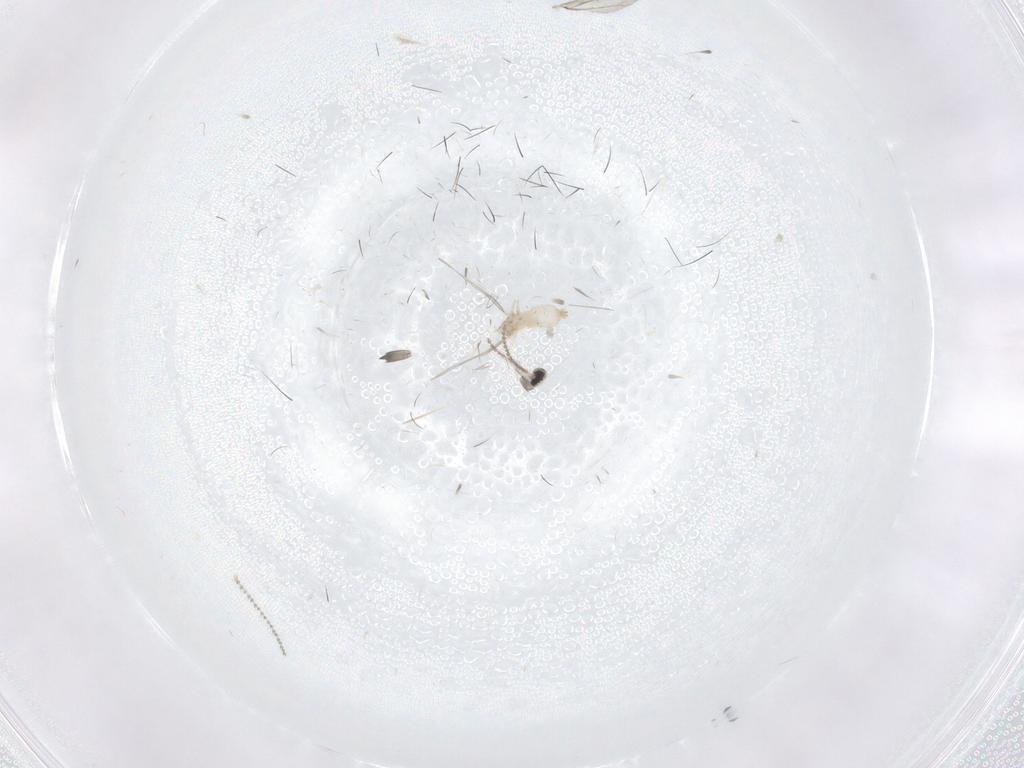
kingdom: Animalia
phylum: Arthropoda
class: Insecta
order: Diptera
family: Cecidomyiidae
